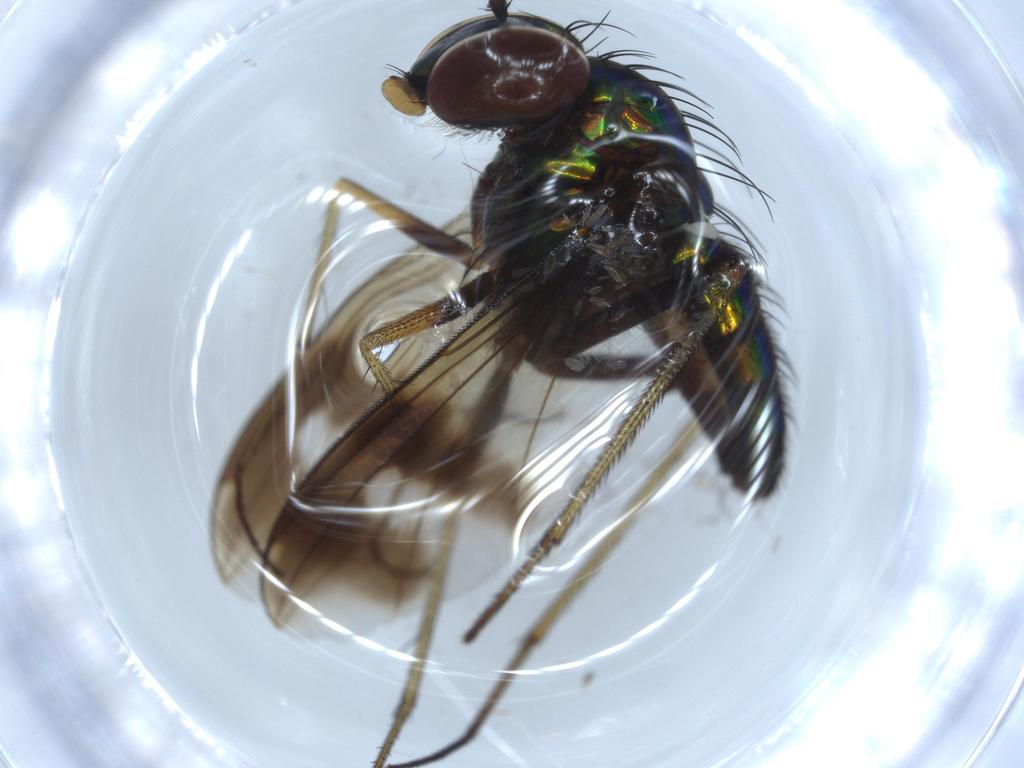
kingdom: Animalia
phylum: Arthropoda
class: Insecta
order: Diptera
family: Dolichopodidae
